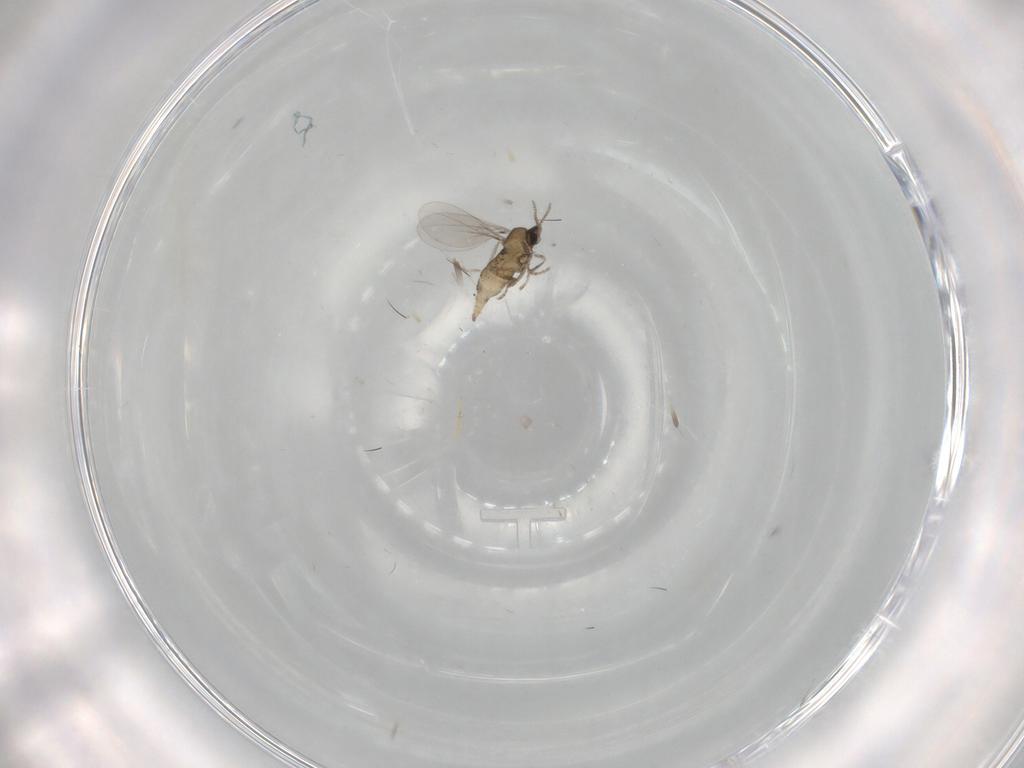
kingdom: Animalia
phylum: Arthropoda
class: Insecta
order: Diptera
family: Cecidomyiidae
